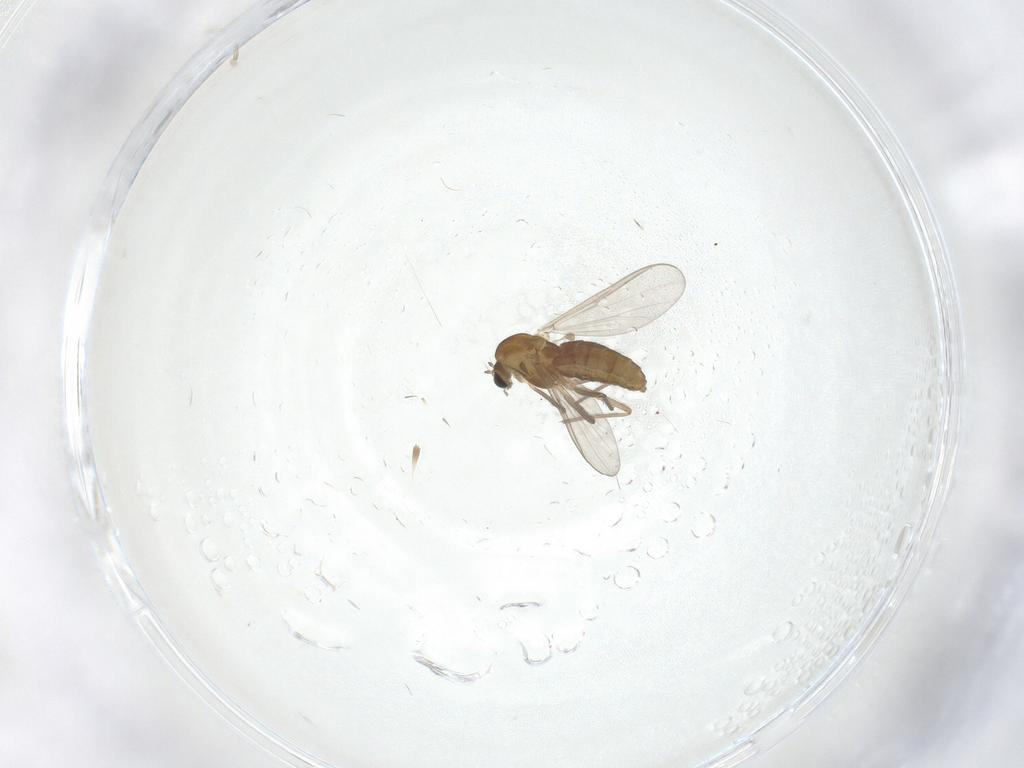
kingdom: Animalia
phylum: Arthropoda
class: Insecta
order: Diptera
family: Chironomidae
